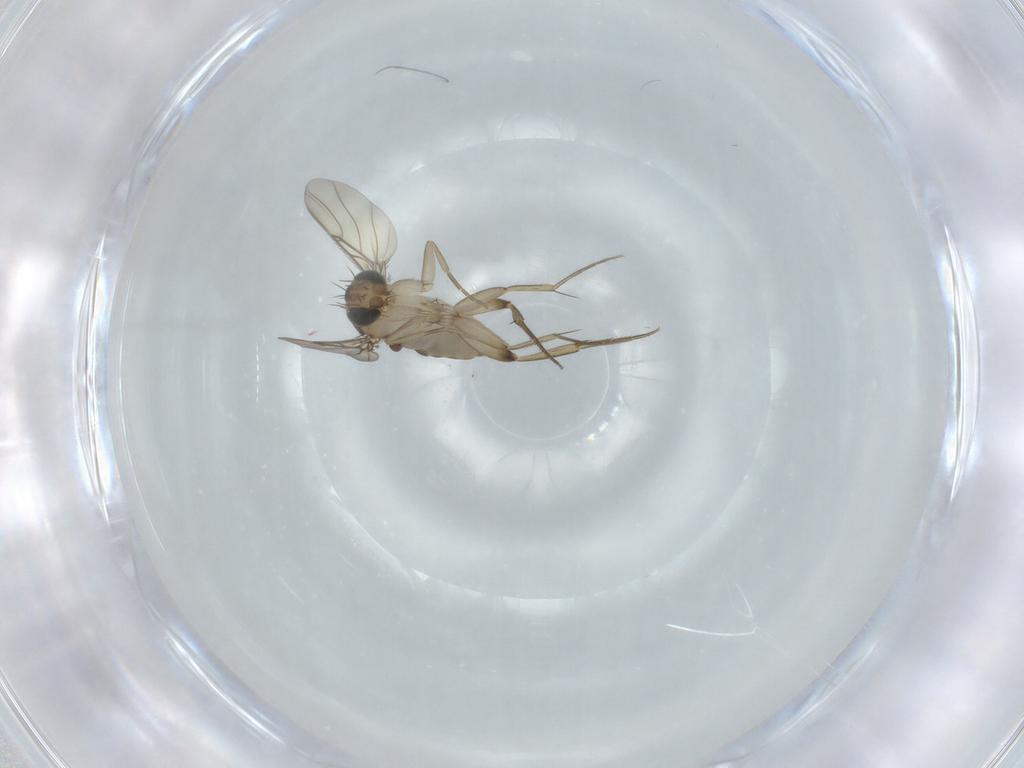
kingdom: Animalia
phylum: Arthropoda
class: Insecta
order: Diptera
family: Phoridae
